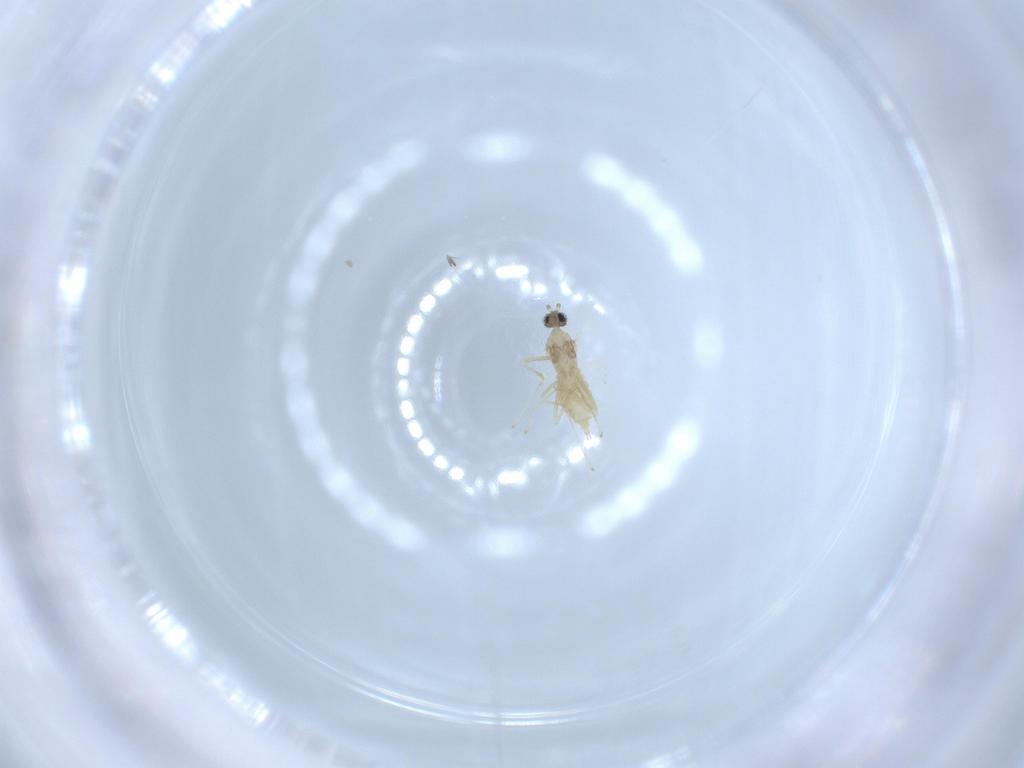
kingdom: Animalia
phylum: Arthropoda
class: Insecta
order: Diptera
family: Cecidomyiidae
